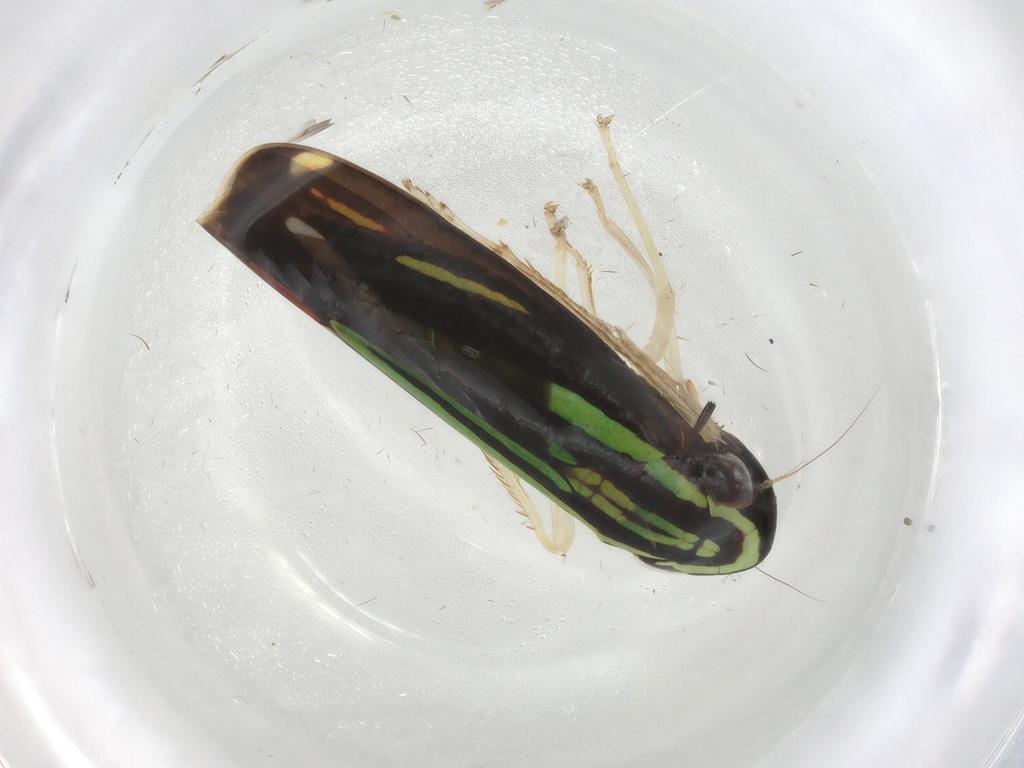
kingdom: Animalia
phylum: Arthropoda
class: Insecta
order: Hemiptera
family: Cicadellidae
